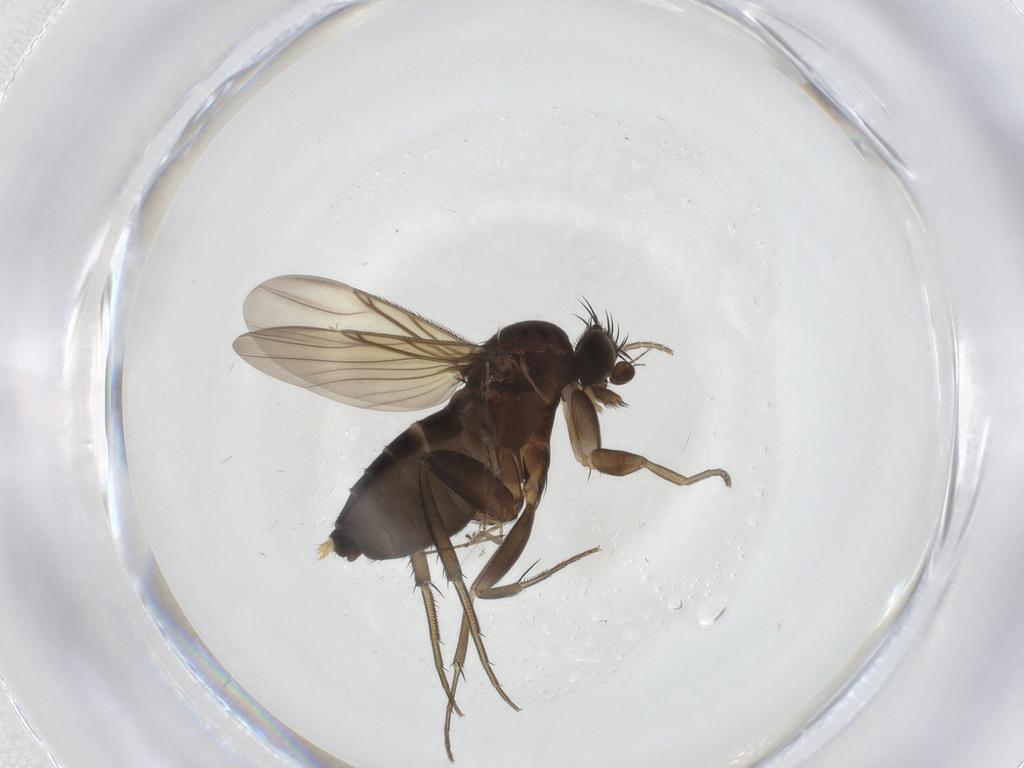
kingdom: Animalia
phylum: Arthropoda
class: Insecta
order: Diptera
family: Phoridae
